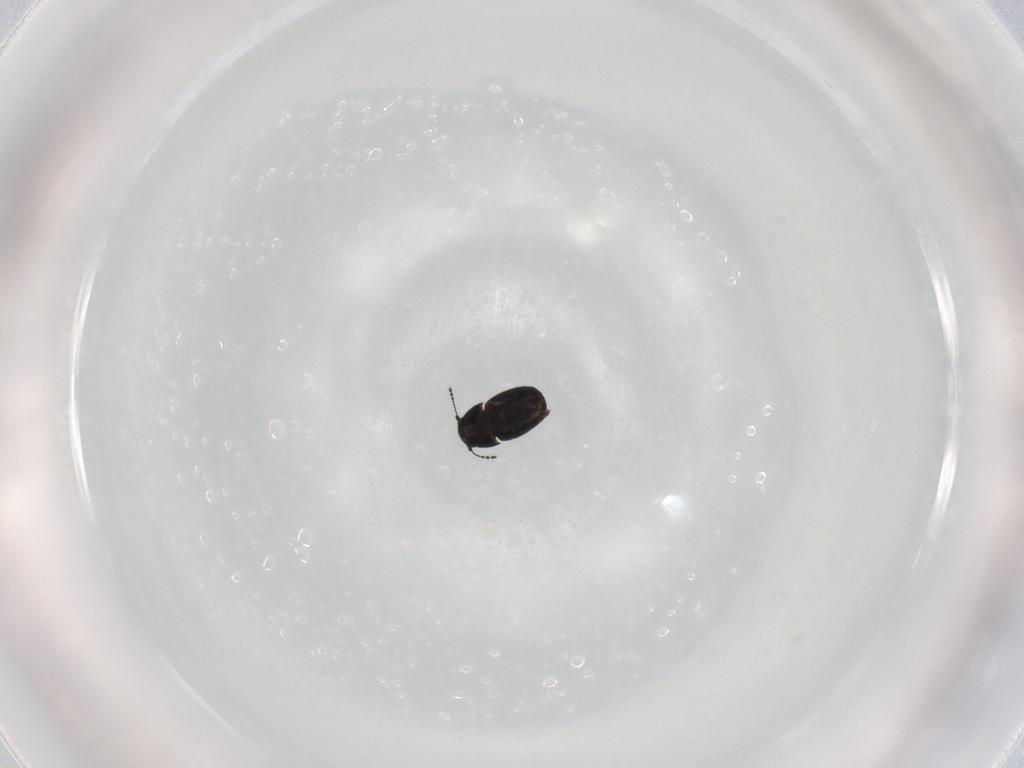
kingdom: Animalia
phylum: Arthropoda
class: Insecta
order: Coleoptera
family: Ptiliidae
